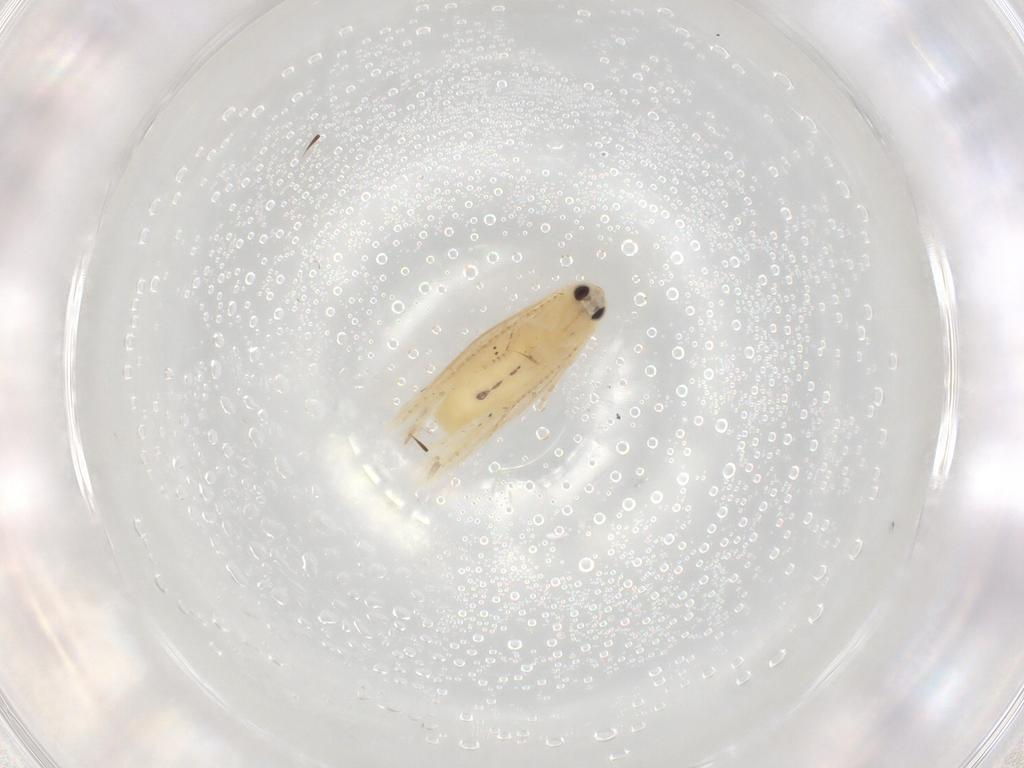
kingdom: Animalia
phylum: Arthropoda
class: Insecta
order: Lepidoptera
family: Depressariidae
